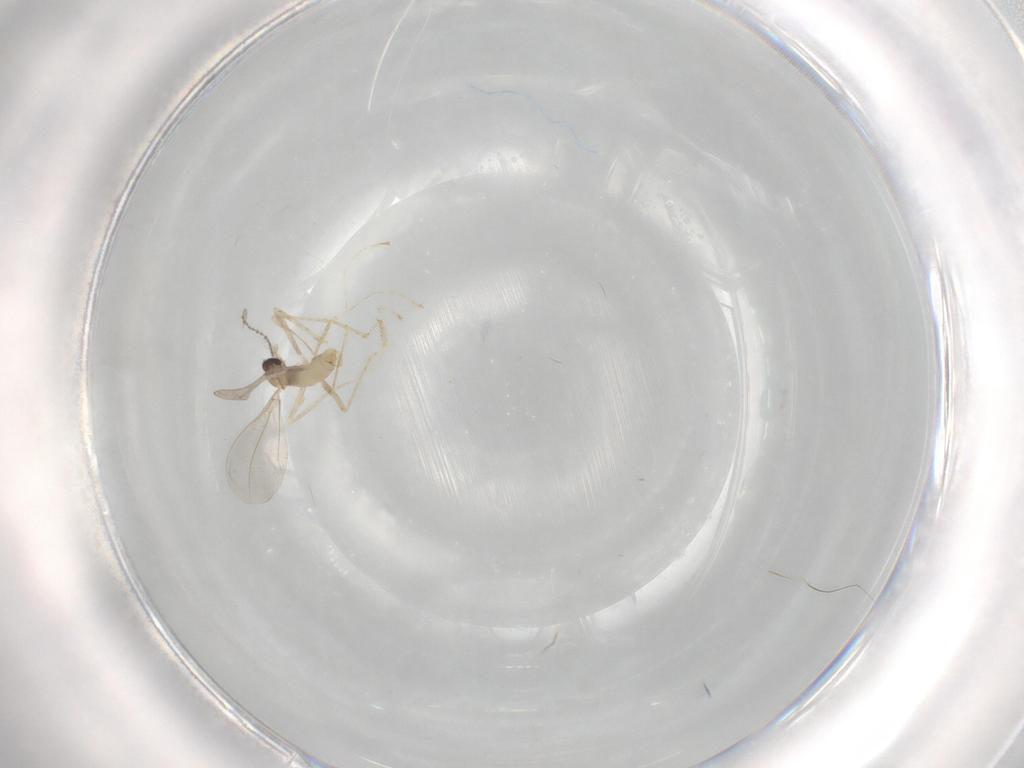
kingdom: Animalia
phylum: Arthropoda
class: Insecta
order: Diptera
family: Cecidomyiidae
